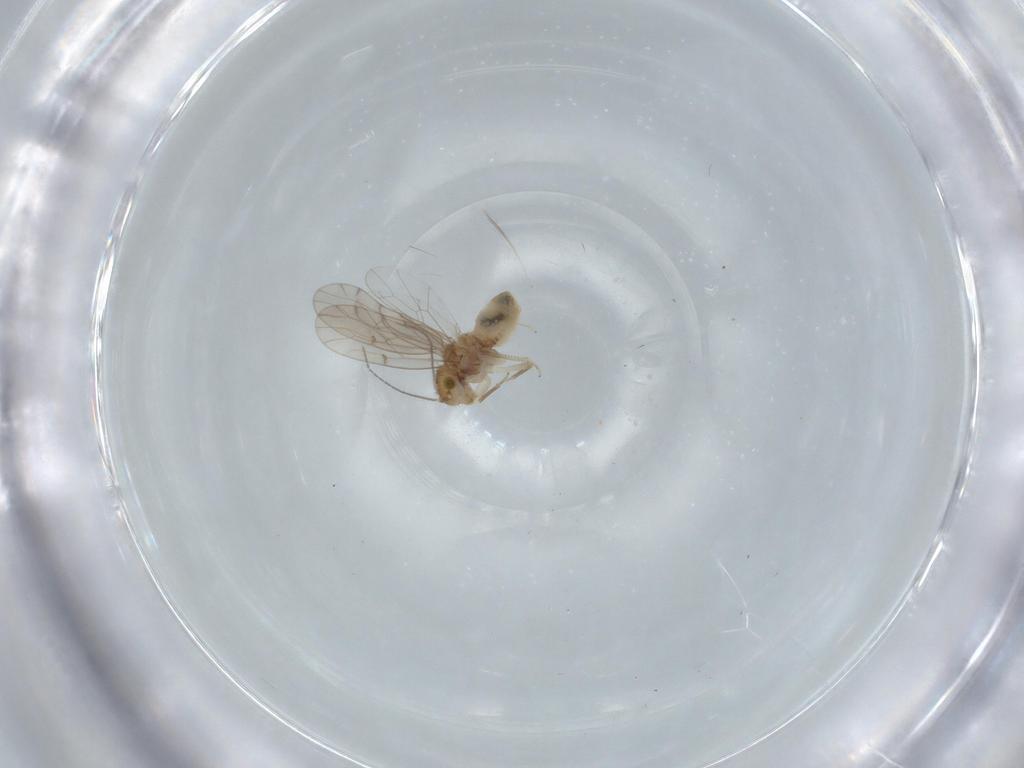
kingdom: Animalia
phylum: Arthropoda
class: Insecta
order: Psocodea
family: Ectopsocidae
